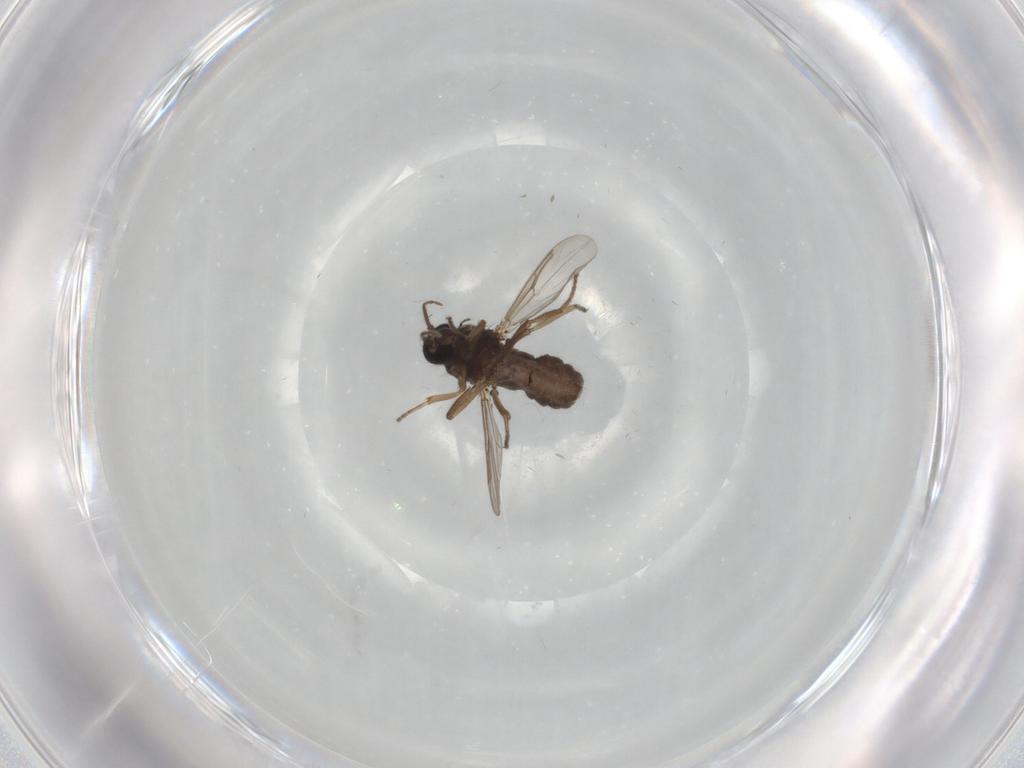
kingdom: Animalia
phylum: Arthropoda
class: Insecta
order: Diptera
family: Ceratopogonidae
